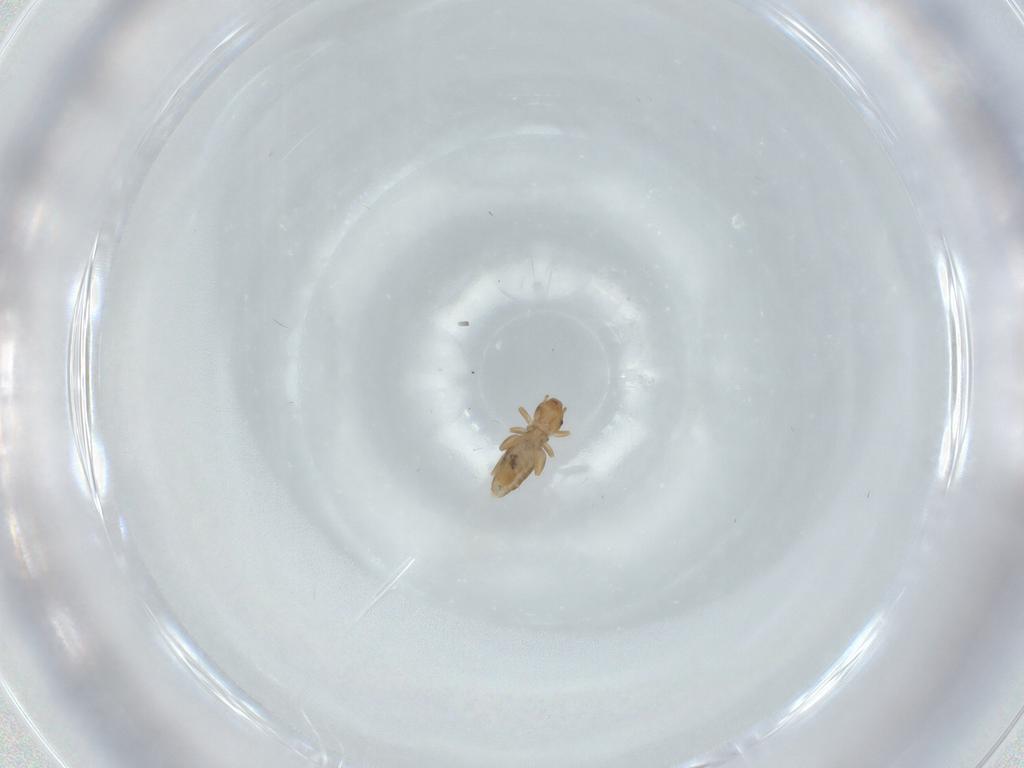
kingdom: Animalia
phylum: Arthropoda
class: Insecta
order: Psocodea
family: Liposcelididae
